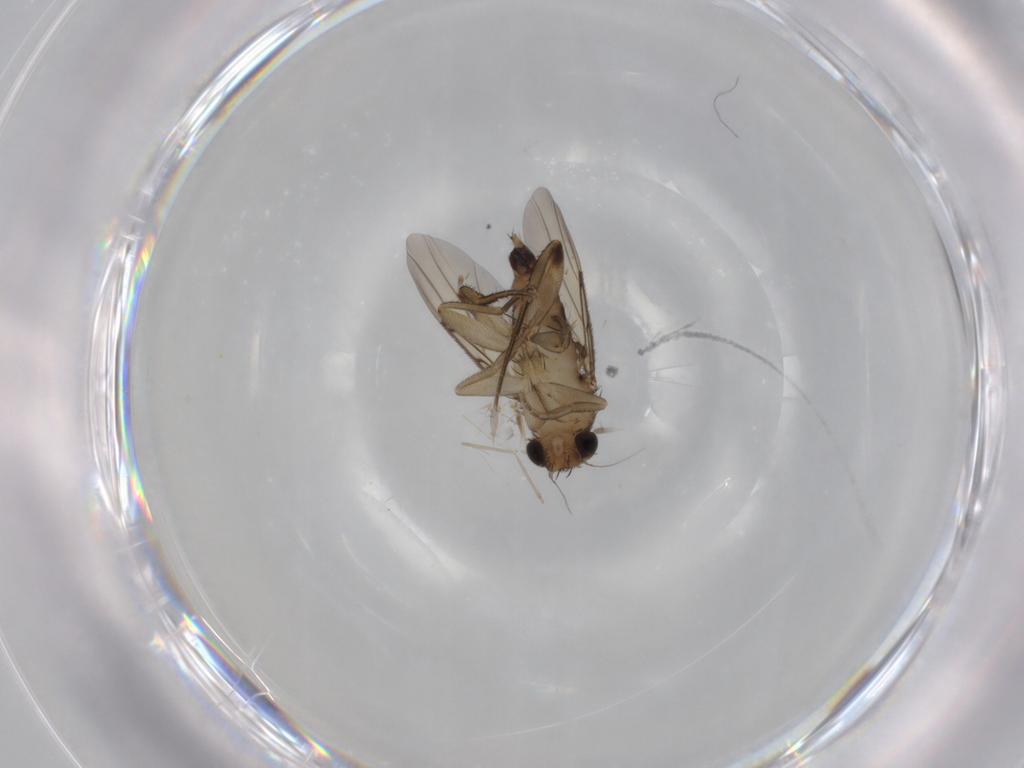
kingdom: Animalia
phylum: Arthropoda
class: Insecta
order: Diptera
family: Phoridae
